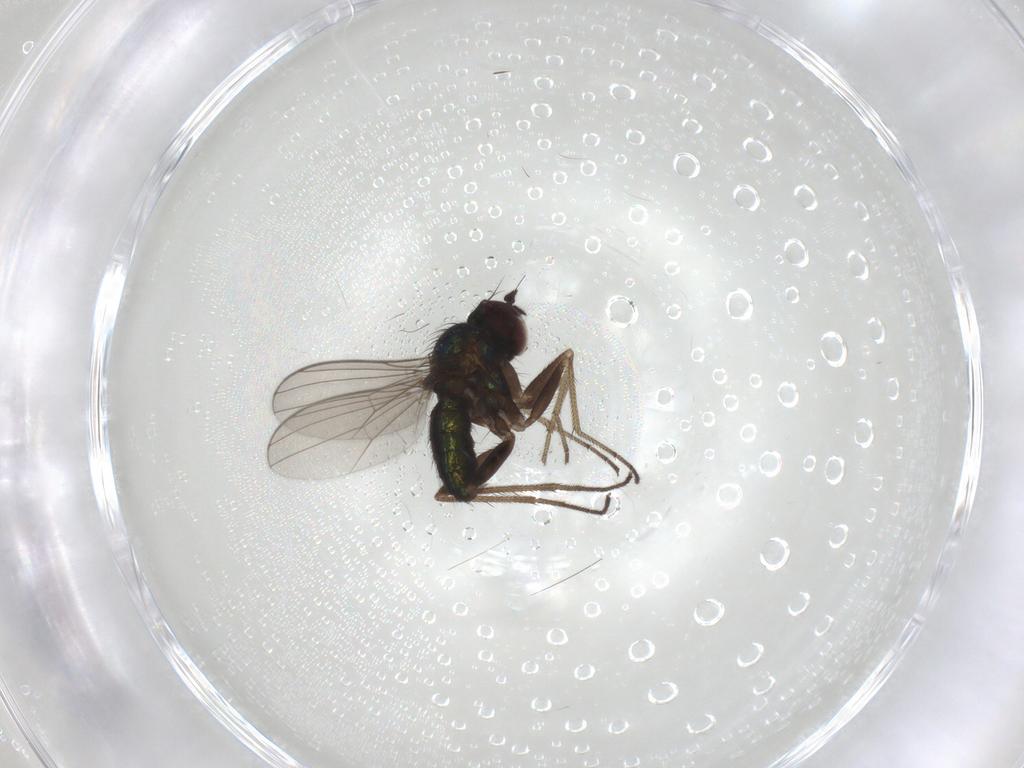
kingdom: Animalia
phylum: Arthropoda
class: Insecta
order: Diptera
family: Dolichopodidae
